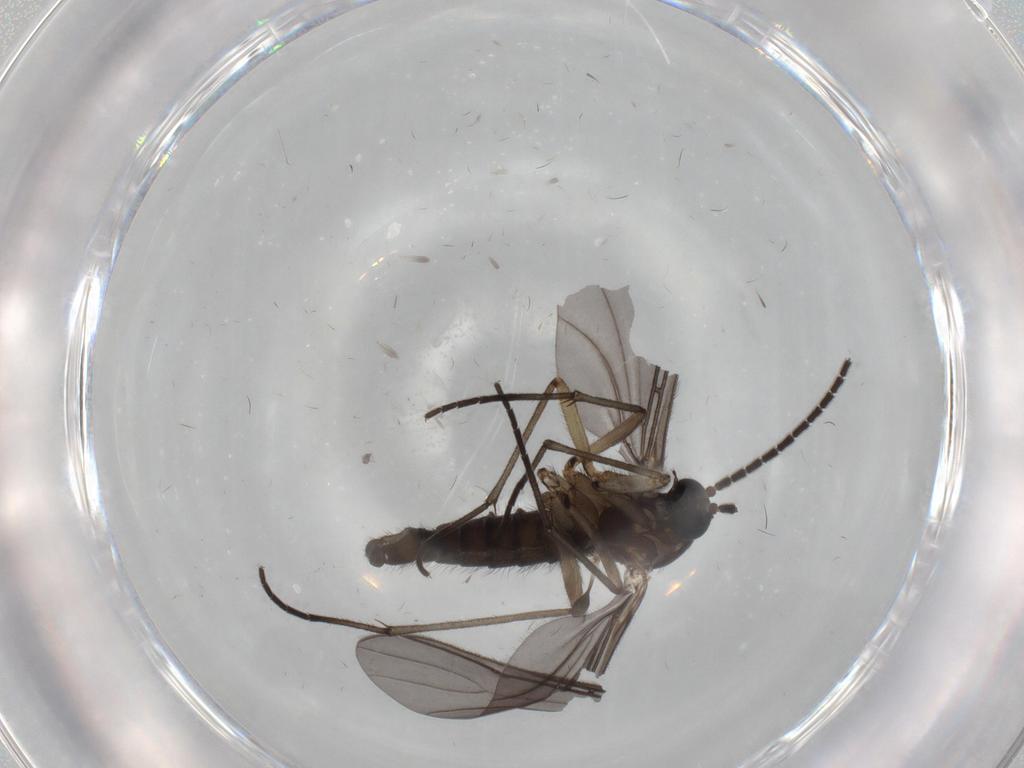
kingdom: Animalia
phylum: Arthropoda
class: Insecta
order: Diptera
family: Sciaridae
